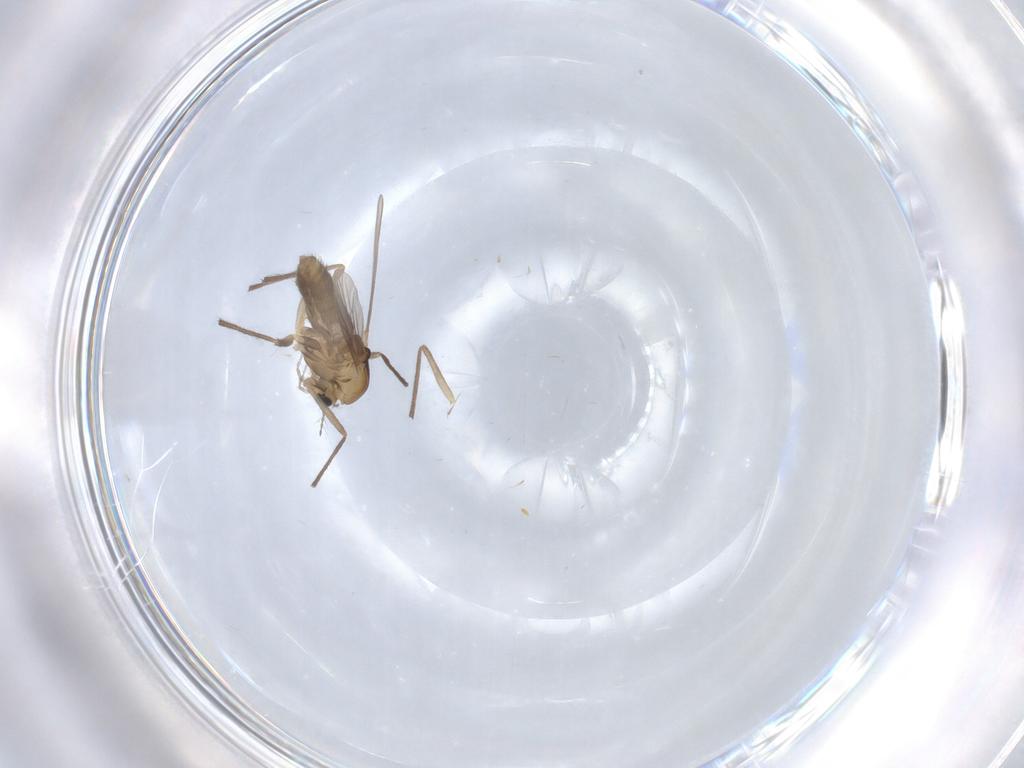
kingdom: Animalia
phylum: Arthropoda
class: Insecta
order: Diptera
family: Chironomidae
